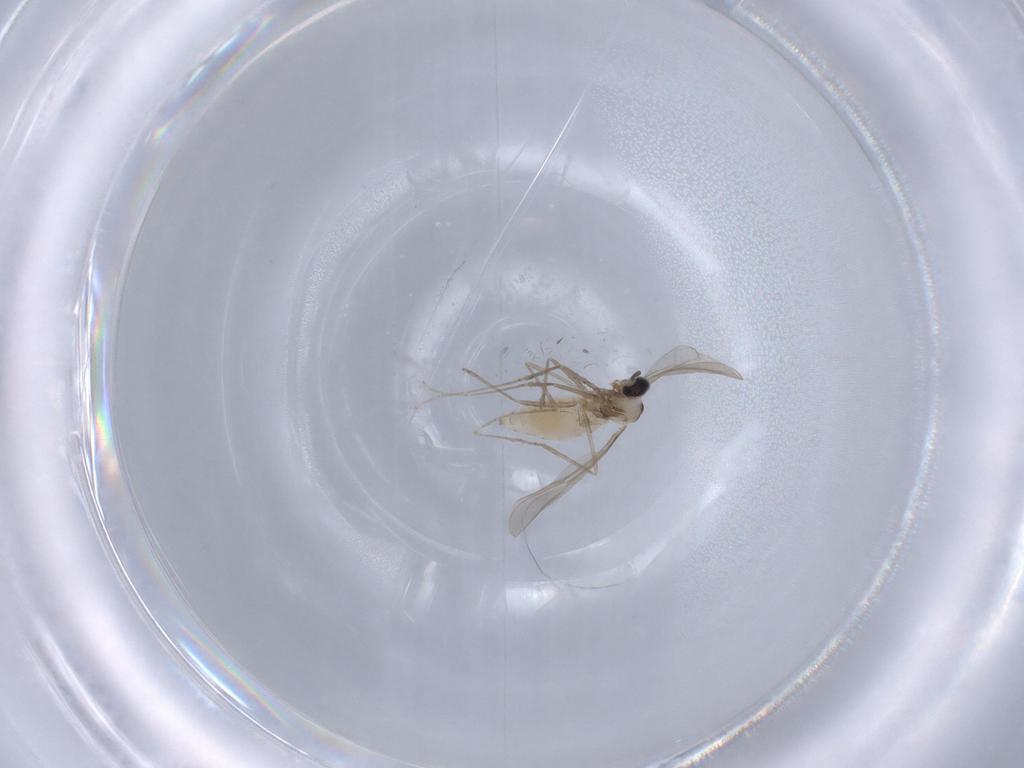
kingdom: Animalia
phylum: Arthropoda
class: Insecta
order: Diptera
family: Cecidomyiidae
